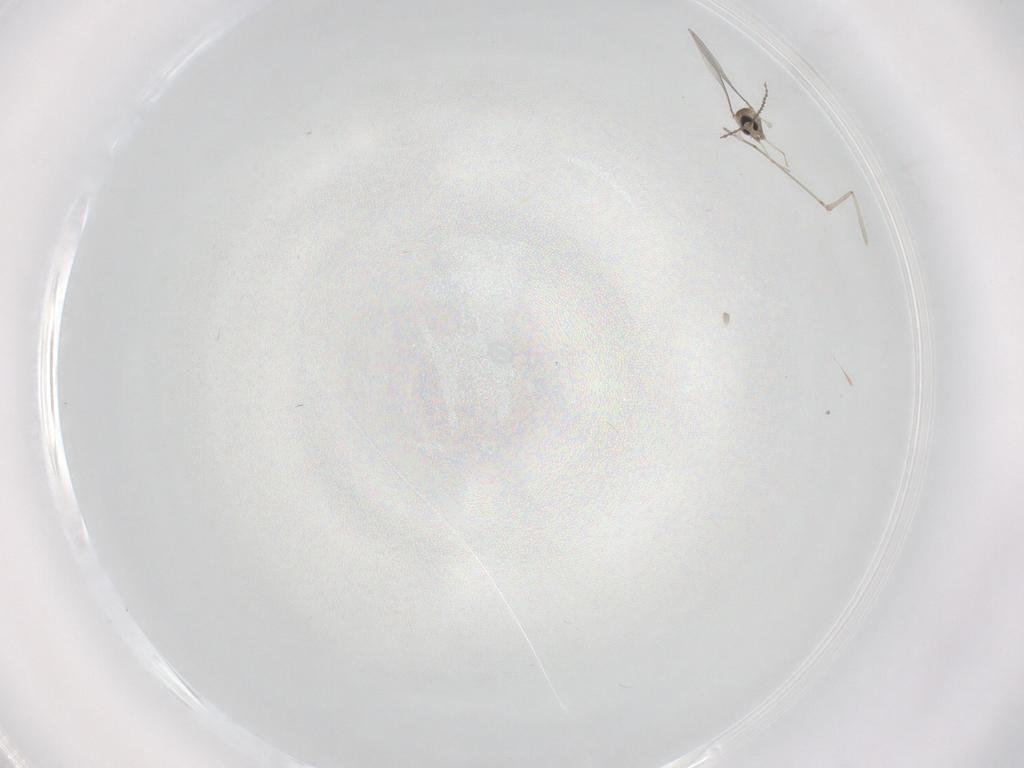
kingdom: Animalia
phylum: Arthropoda
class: Insecta
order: Diptera
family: Cecidomyiidae
